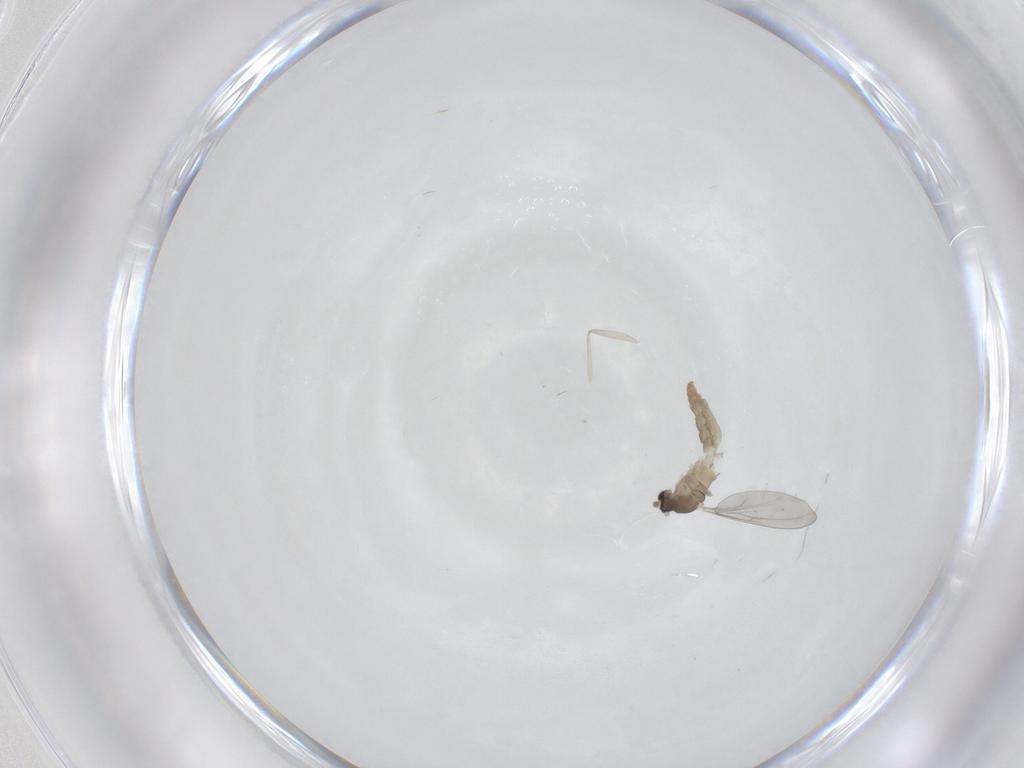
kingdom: Animalia
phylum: Arthropoda
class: Insecta
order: Diptera
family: Cecidomyiidae
